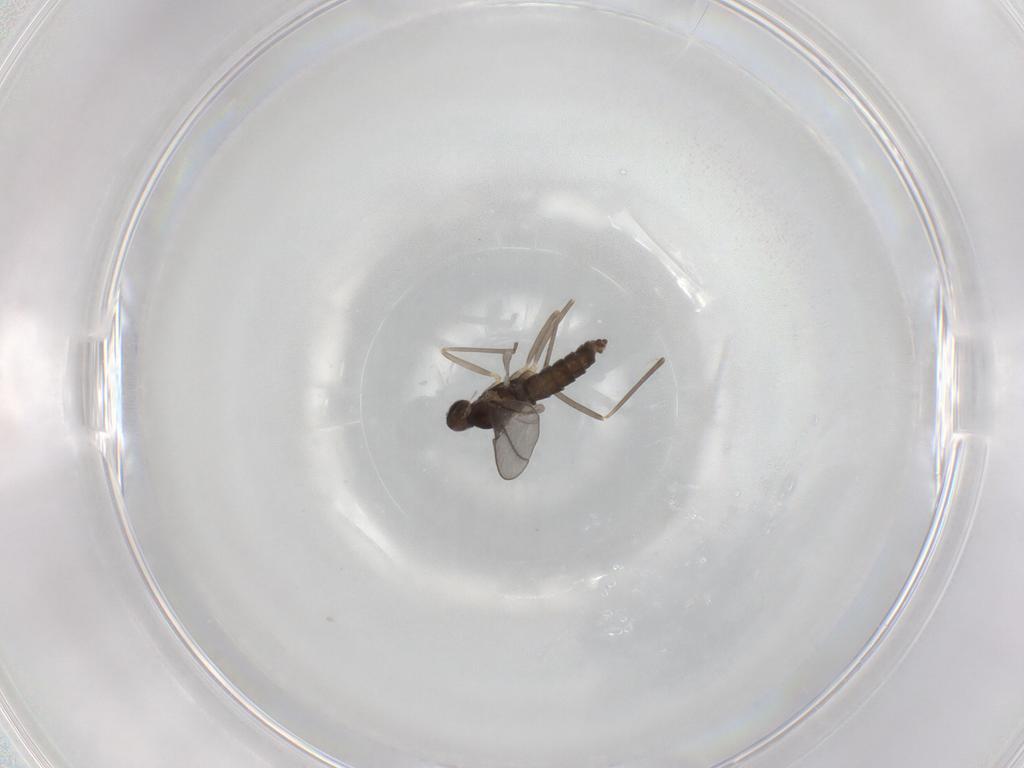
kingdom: Animalia
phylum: Arthropoda
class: Insecta
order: Diptera
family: Cecidomyiidae
